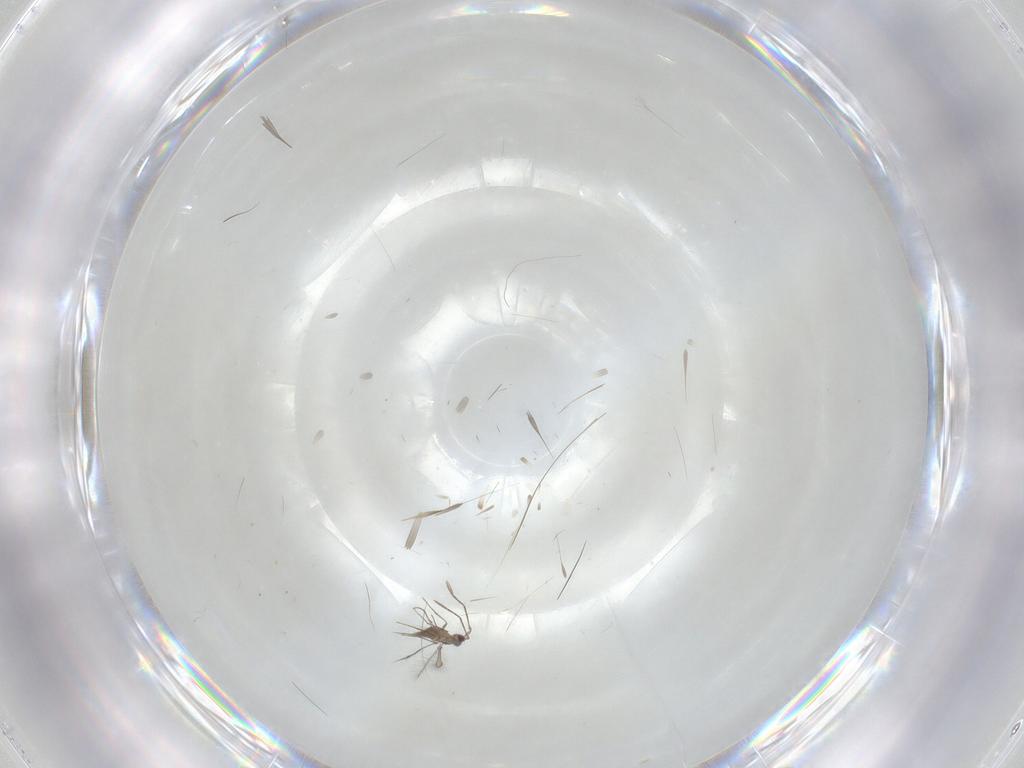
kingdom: Animalia
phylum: Arthropoda
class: Insecta
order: Hymenoptera
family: Mymaridae
